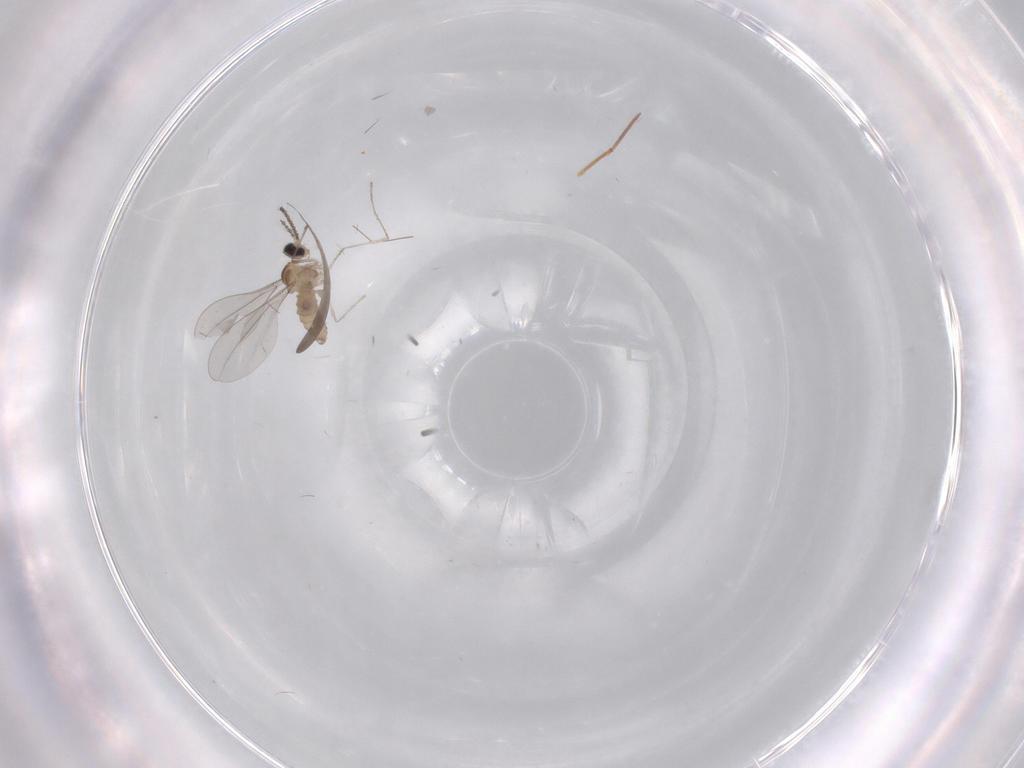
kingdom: Animalia
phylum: Arthropoda
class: Insecta
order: Diptera
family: Cecidomyiidae
